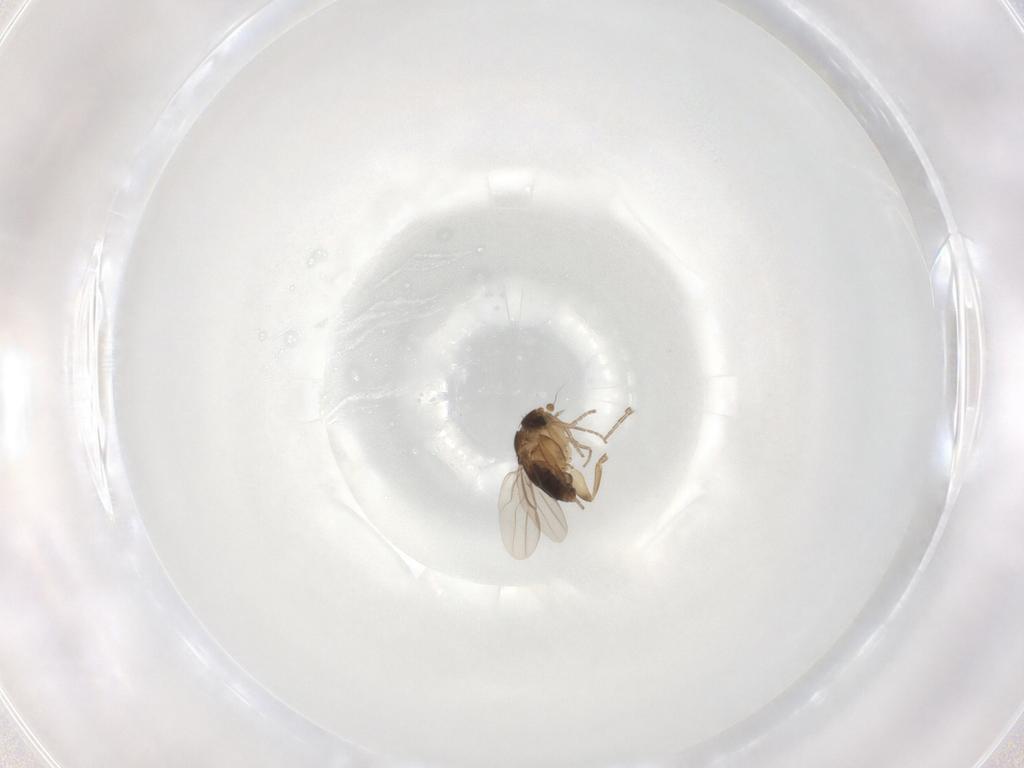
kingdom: Animalia
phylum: Arthropoda
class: Insecta
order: Diptera
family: Phoridae
